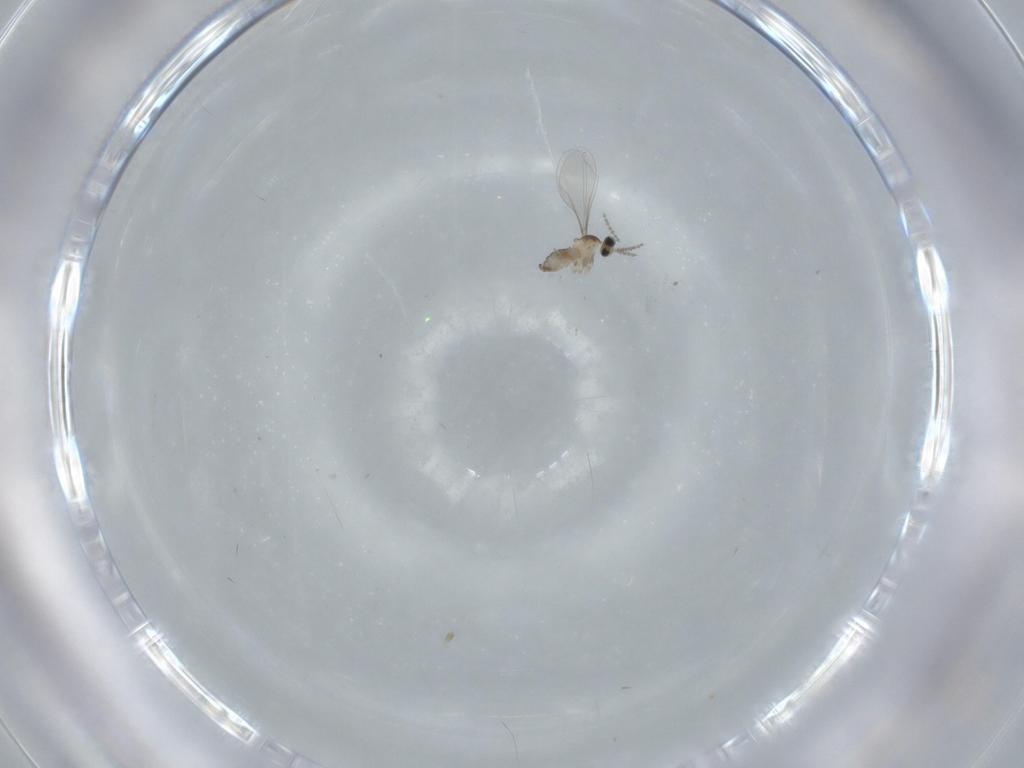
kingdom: Animalia
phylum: Arthropoda
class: Insecta
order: Diptera
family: Cecidomyiidae
